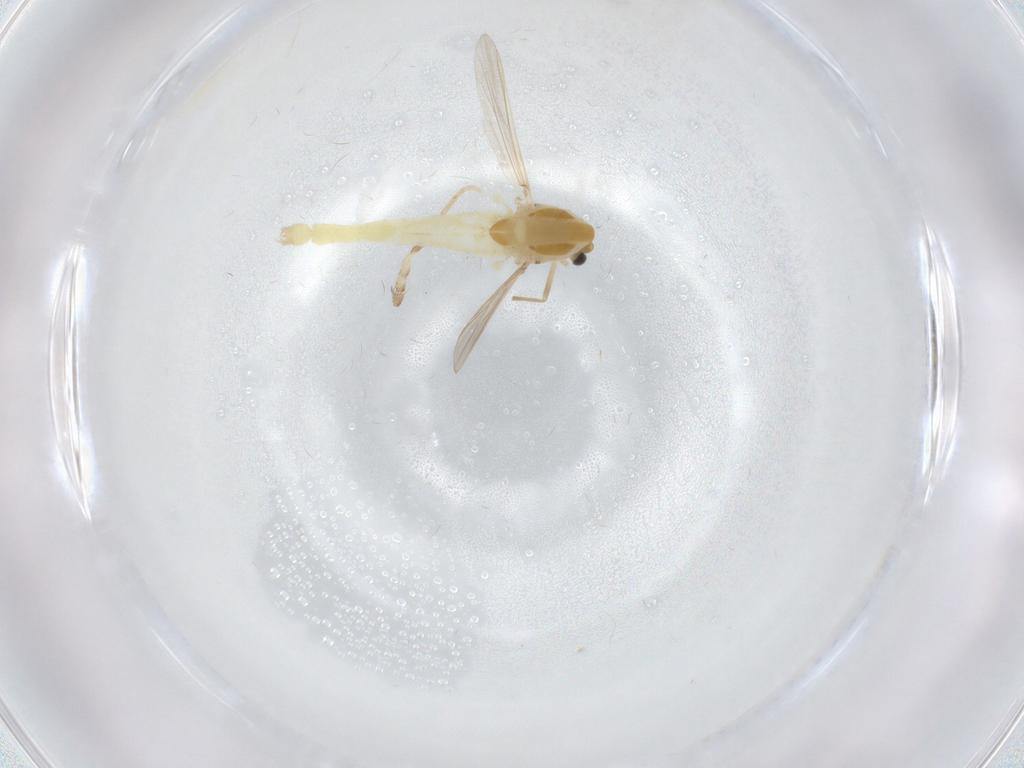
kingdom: Animalia
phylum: Arthropoda
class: Insecta
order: Diptera
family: Chironomidae
